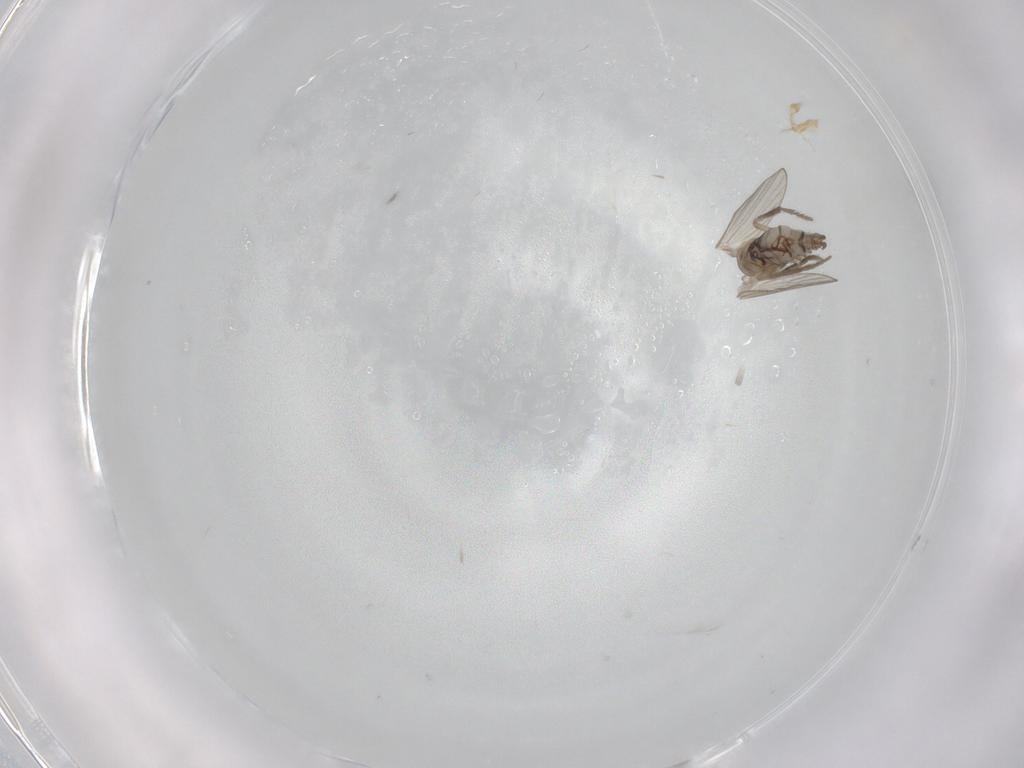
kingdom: Animalia
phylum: Arthropoda
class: Insecta
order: Diptera
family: Psychodidae
